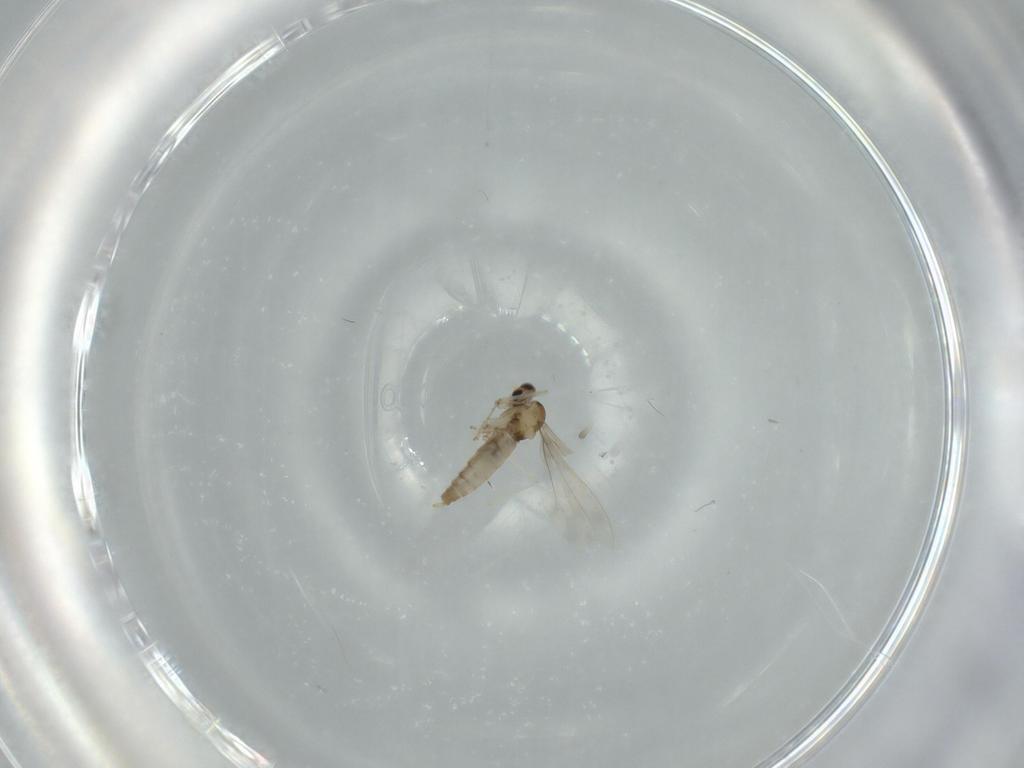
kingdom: Animalia
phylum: Arthropoda
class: Insecta
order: Diptera
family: Cecidomyiidae
